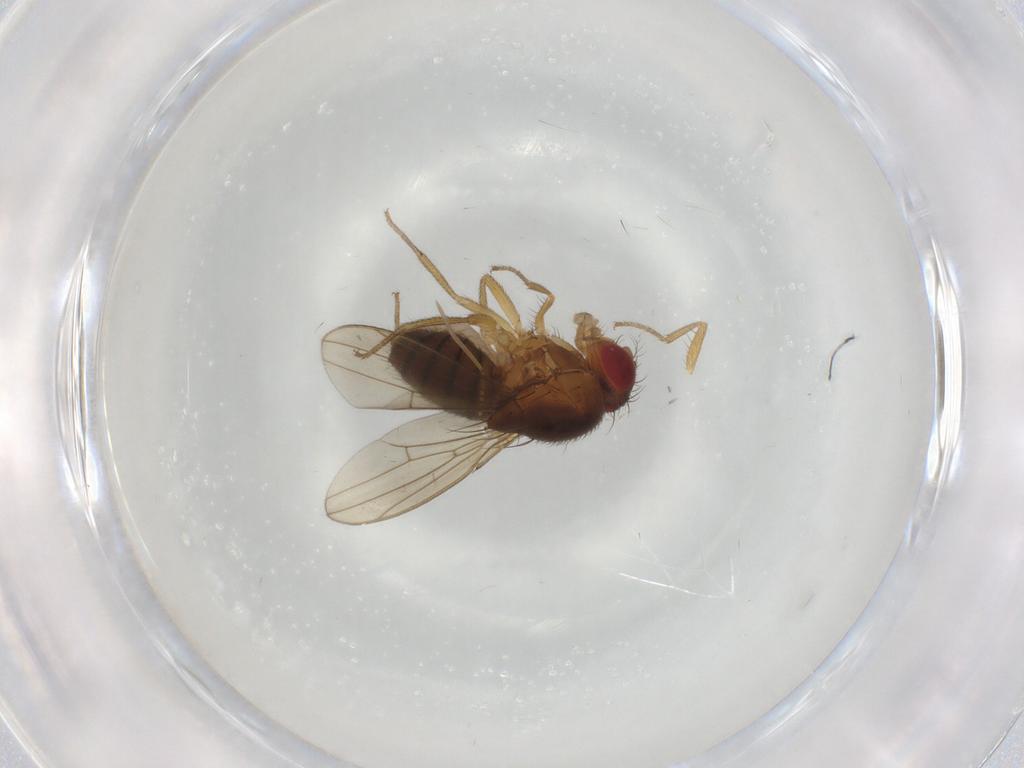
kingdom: Animalia
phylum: Arthropoda
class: Insecta
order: Diptera
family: Drosophilidae
